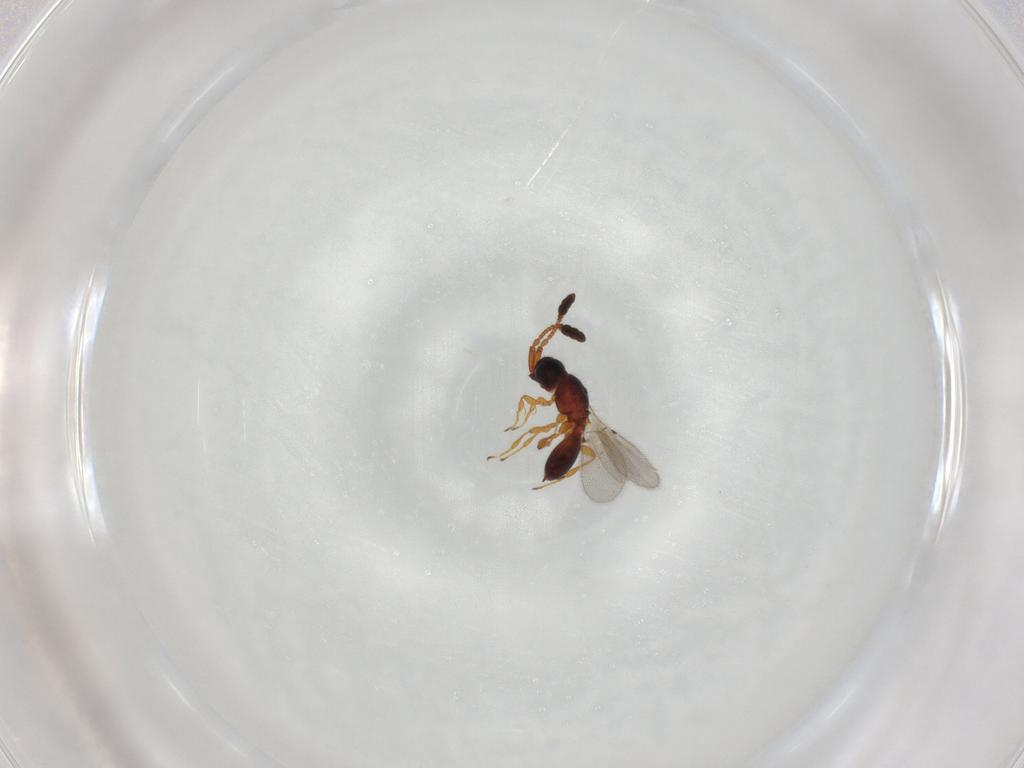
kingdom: Animalia
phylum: Arthropoda
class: Insecta
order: Hymenoptera
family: Diapriidae
